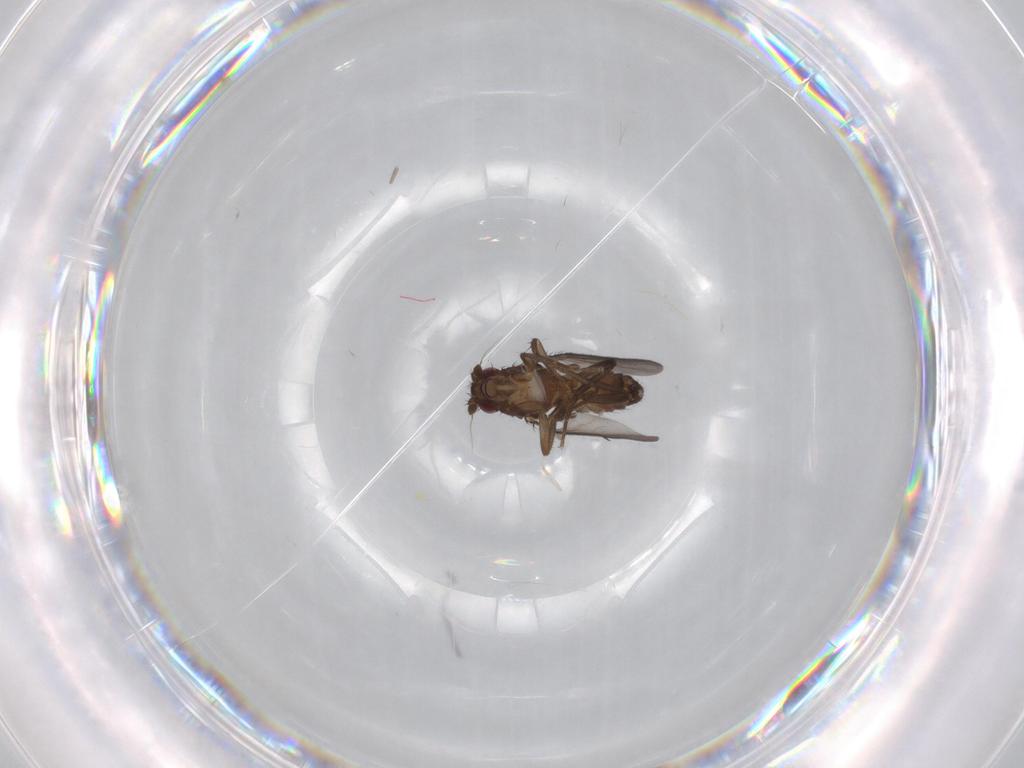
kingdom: Animalia
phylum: Arthropoda
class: Insecta
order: Diptera
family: Sphaeroceridae
